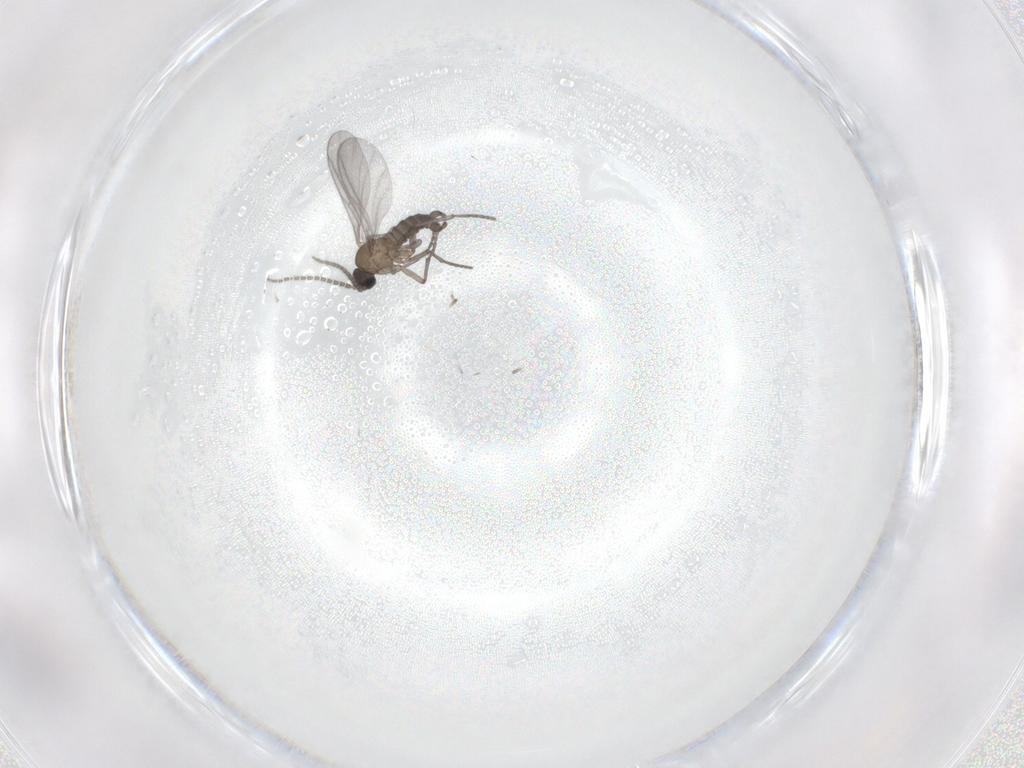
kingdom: Animalia
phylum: Arthropoda
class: Insecta
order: Diptera
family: Sciaridae
